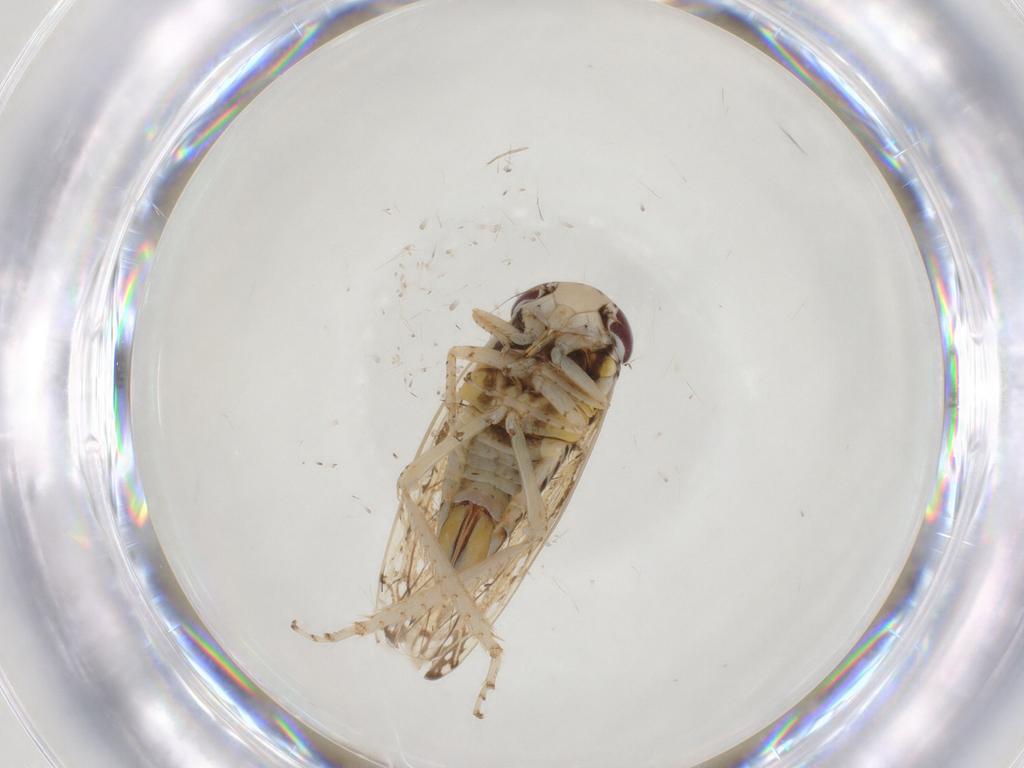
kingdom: Animalia
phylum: Arthropoda
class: Insecta
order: Hemiptera
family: Cicadellidae
